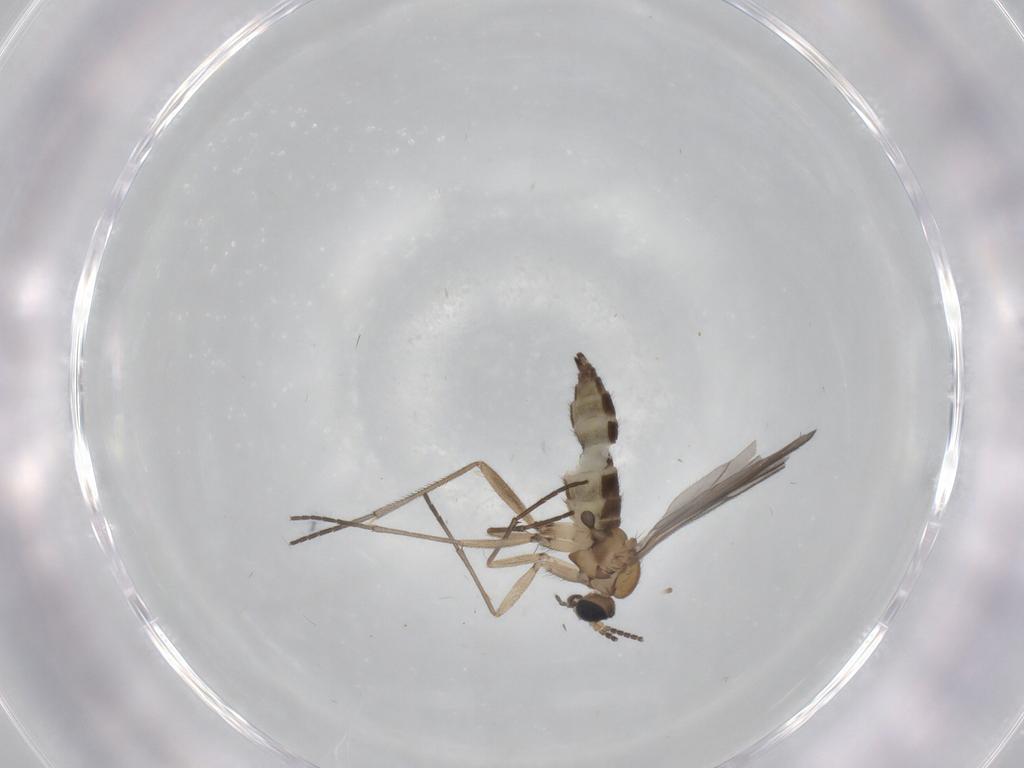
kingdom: Animalia
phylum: Arthropoda
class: Insecta
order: Diptera
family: Sciaridae
